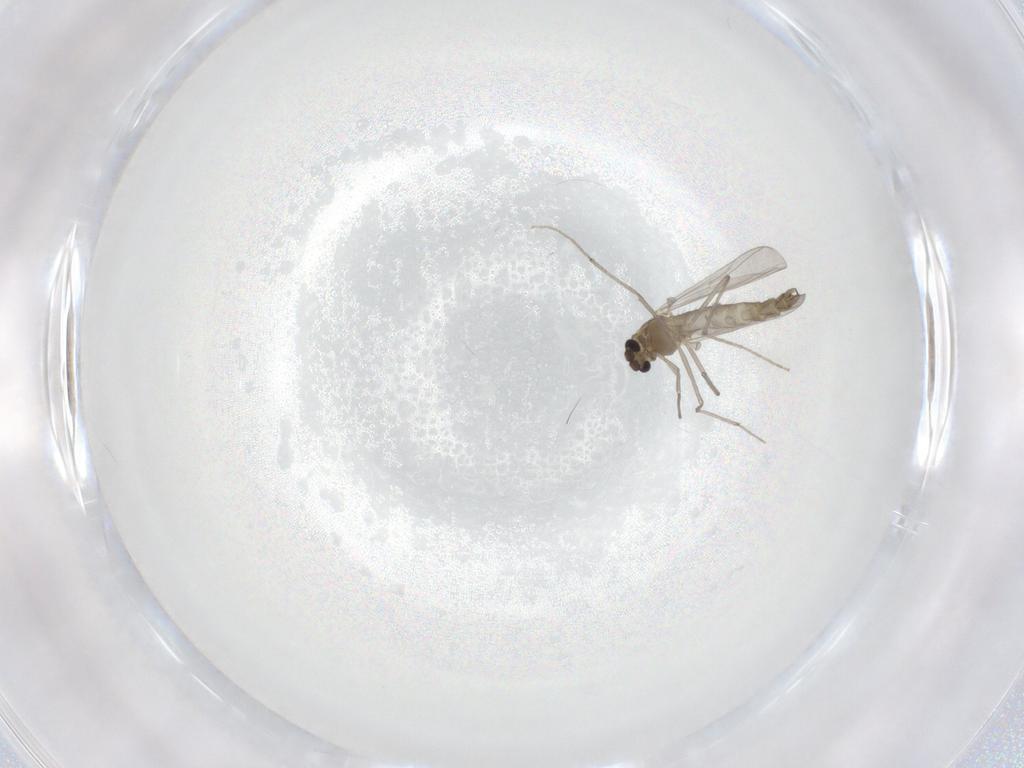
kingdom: Animalia
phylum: Arthropoda
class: Insecta
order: Diptera
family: Chironomidae
